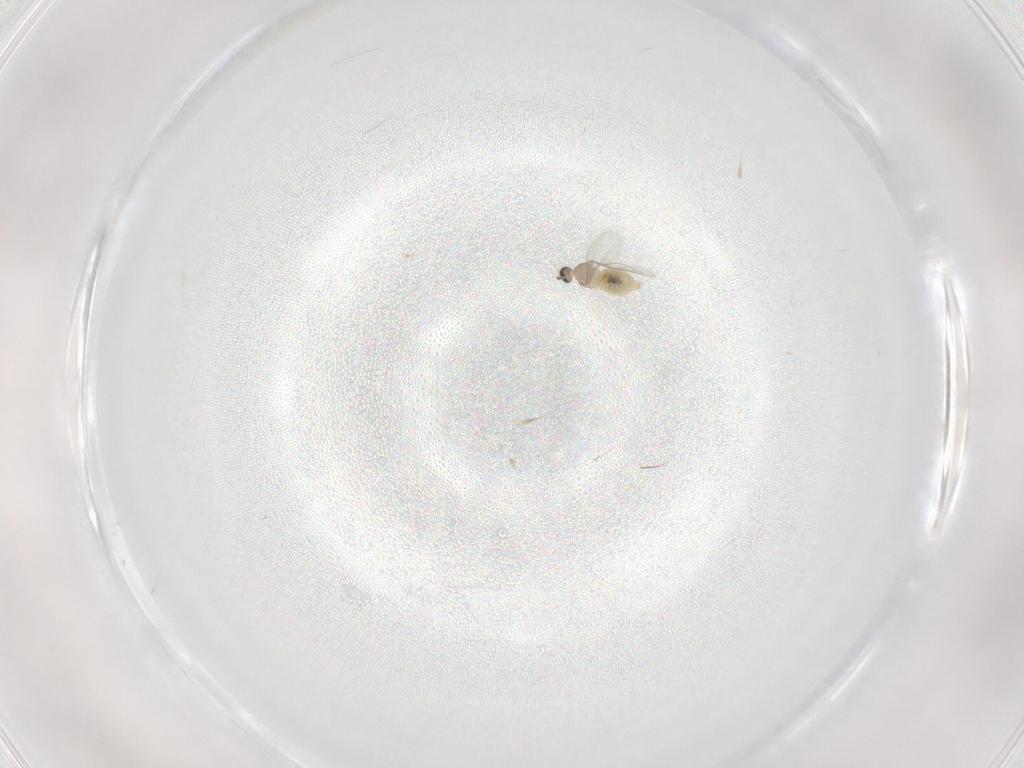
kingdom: Animalia
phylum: Arthropoda
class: Insecta
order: Diptera
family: Cecidomyiidae
